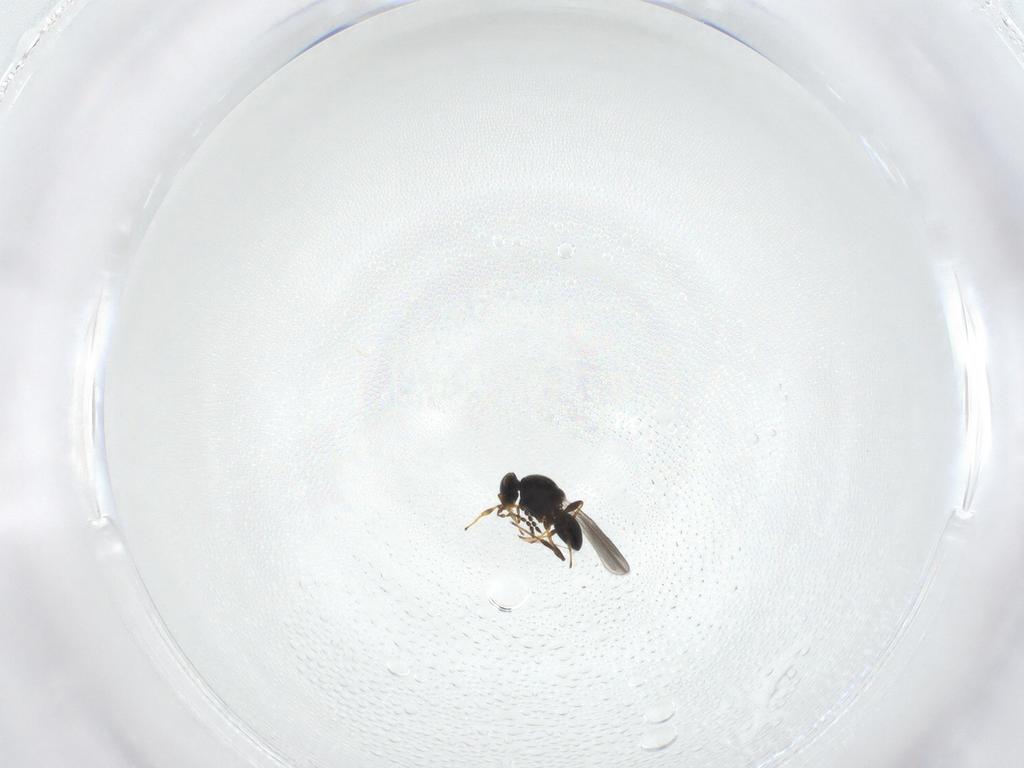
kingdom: Animalia
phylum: Arthropoda
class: Insecta
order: Hymenoptera
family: Platygastridae
